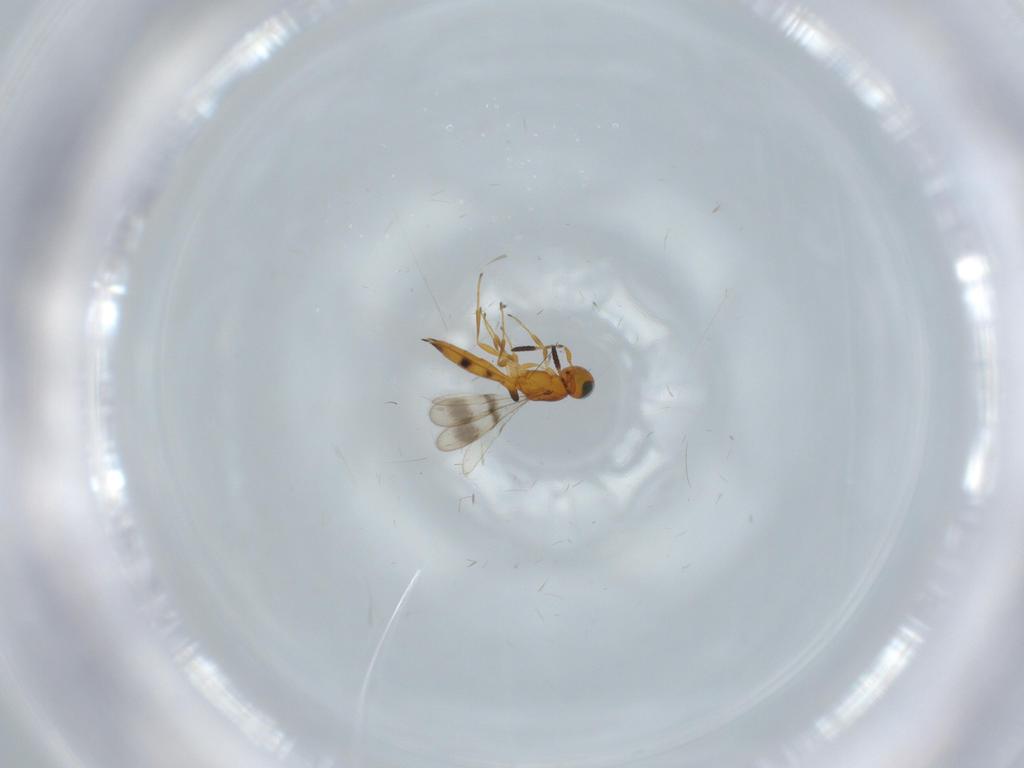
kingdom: Animalia
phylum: Arthropoda
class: Insecta
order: Hymenoptera
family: Scelionidae
